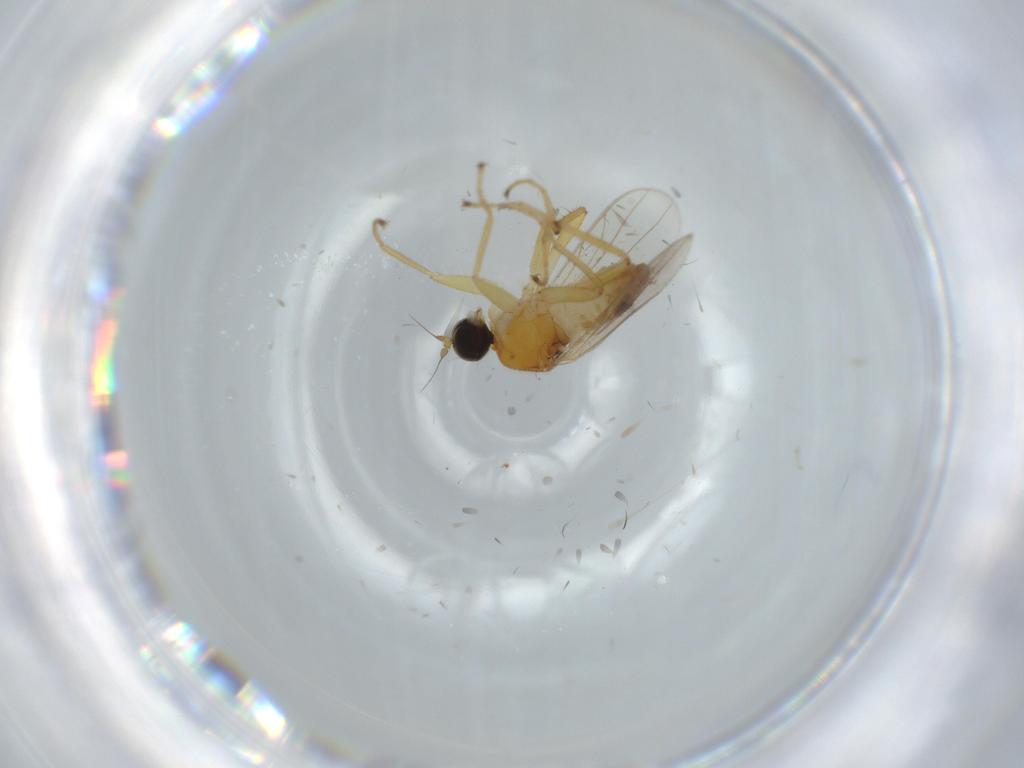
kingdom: Animalia
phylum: Arthropoda
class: Insecta
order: Diptera
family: Hybotidae
